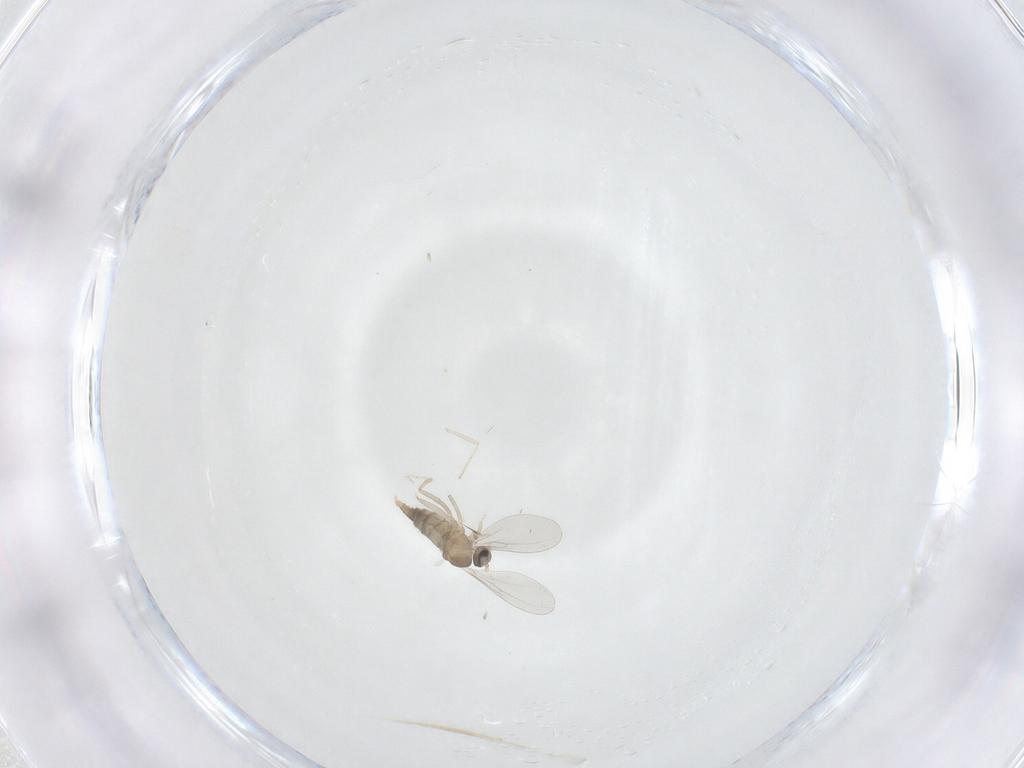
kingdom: Animalia
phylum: Arthropoda
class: Insecta
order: Diptera
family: Cecidomyiidae
